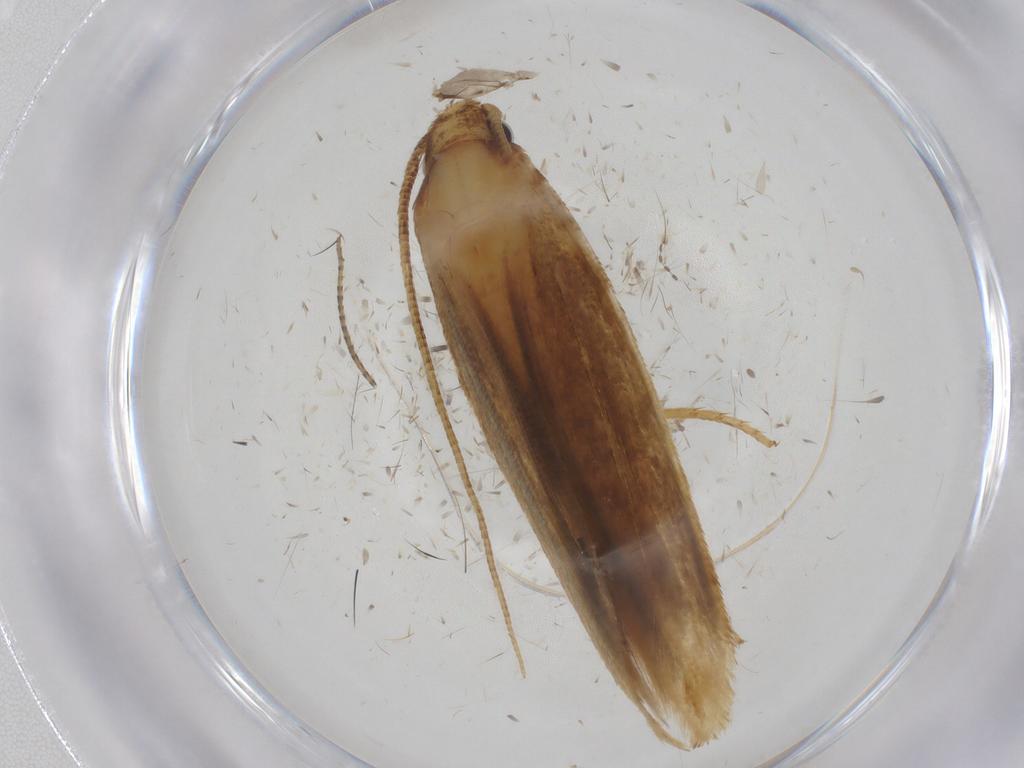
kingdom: Animalia
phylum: Arthropoda
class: Insecta
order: Lepidoptera
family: Tineidae
